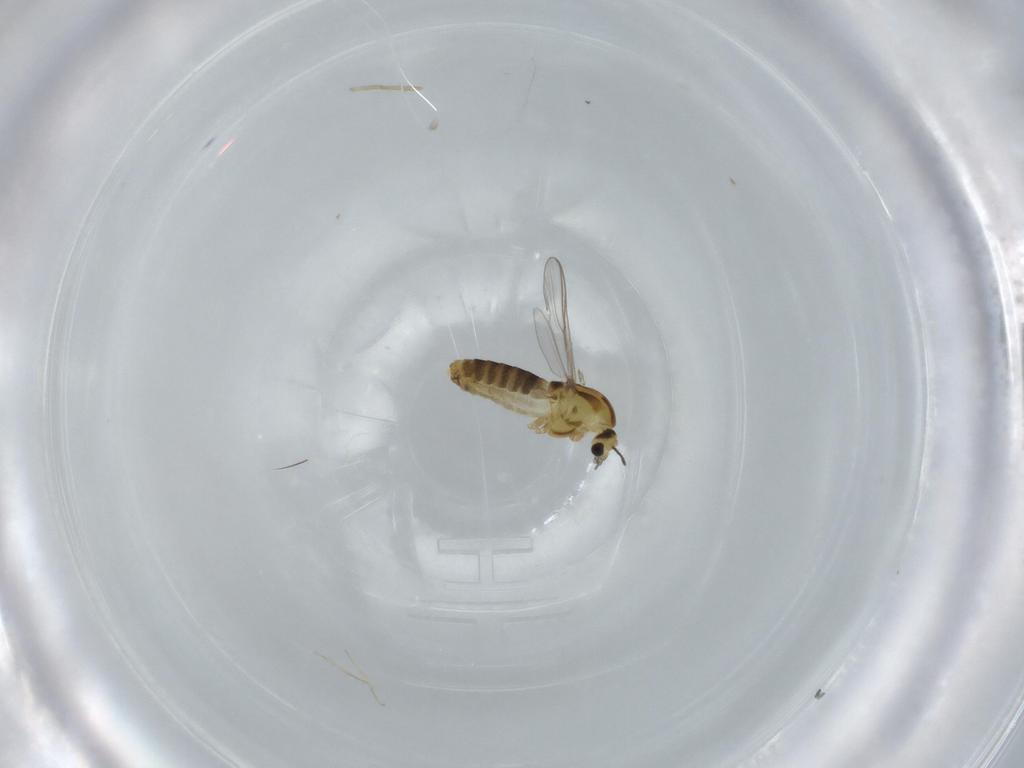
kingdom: Animalia
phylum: Arthropoda
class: Insecta
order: Diptera
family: Chironomidae
